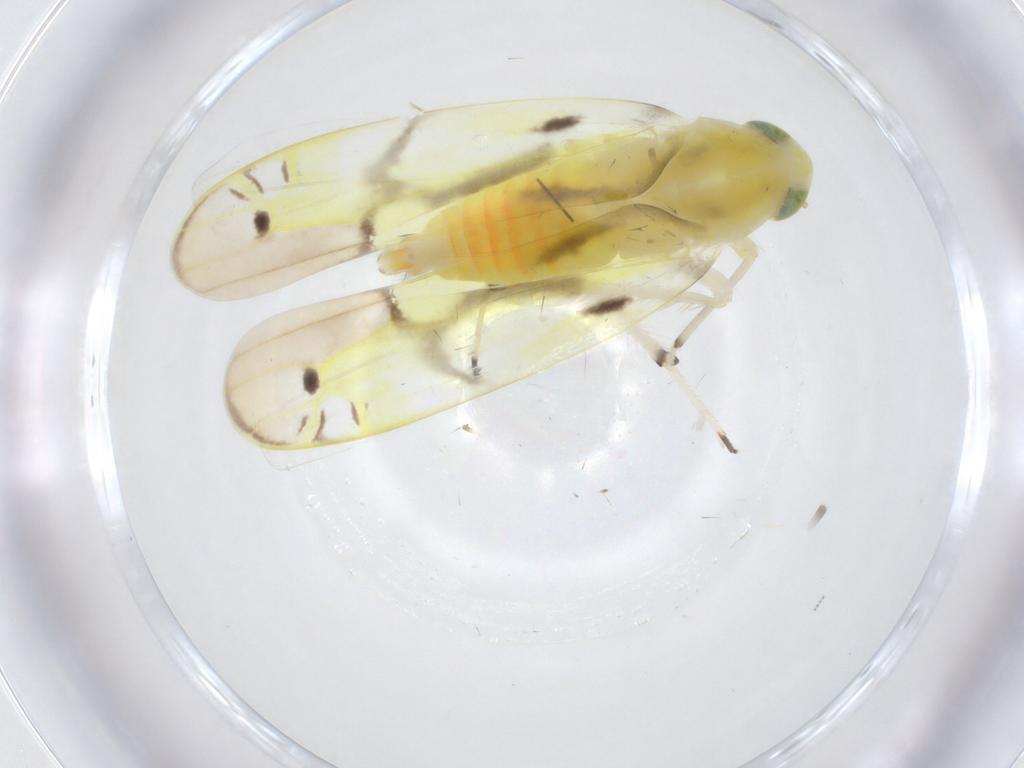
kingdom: Animalia
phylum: Arthropoda
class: Insecta
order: Hemiptera
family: Cicadellidae
